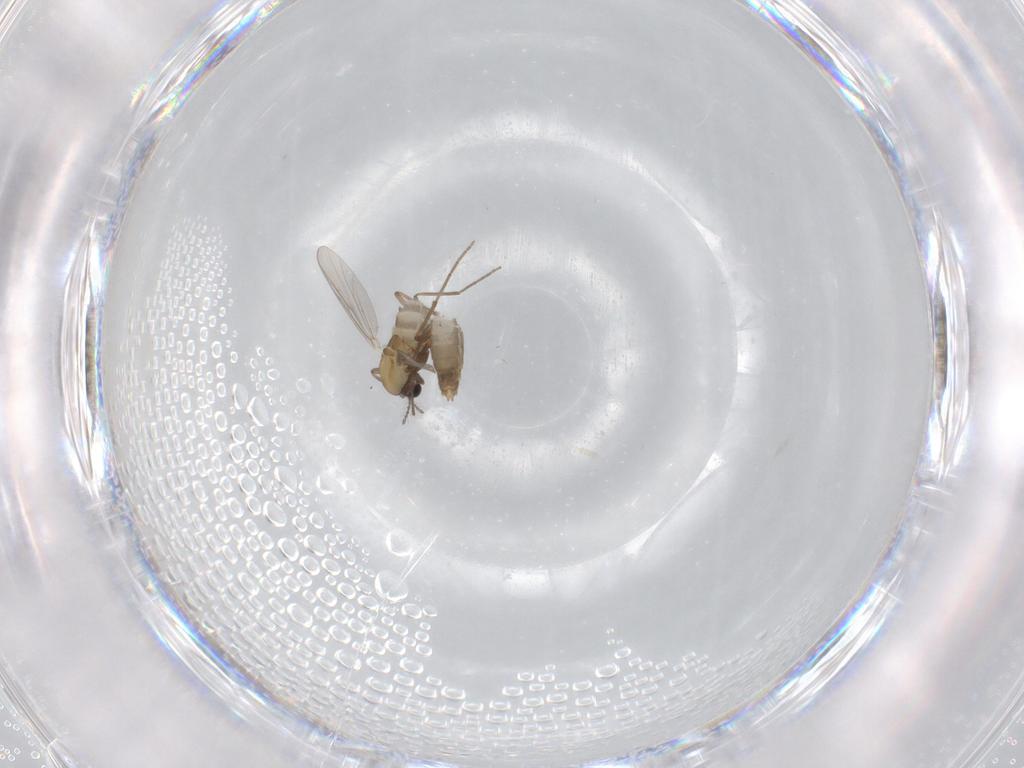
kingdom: Animalia
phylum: Arthropoda
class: Insecta
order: Diptera
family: Chironomidae
